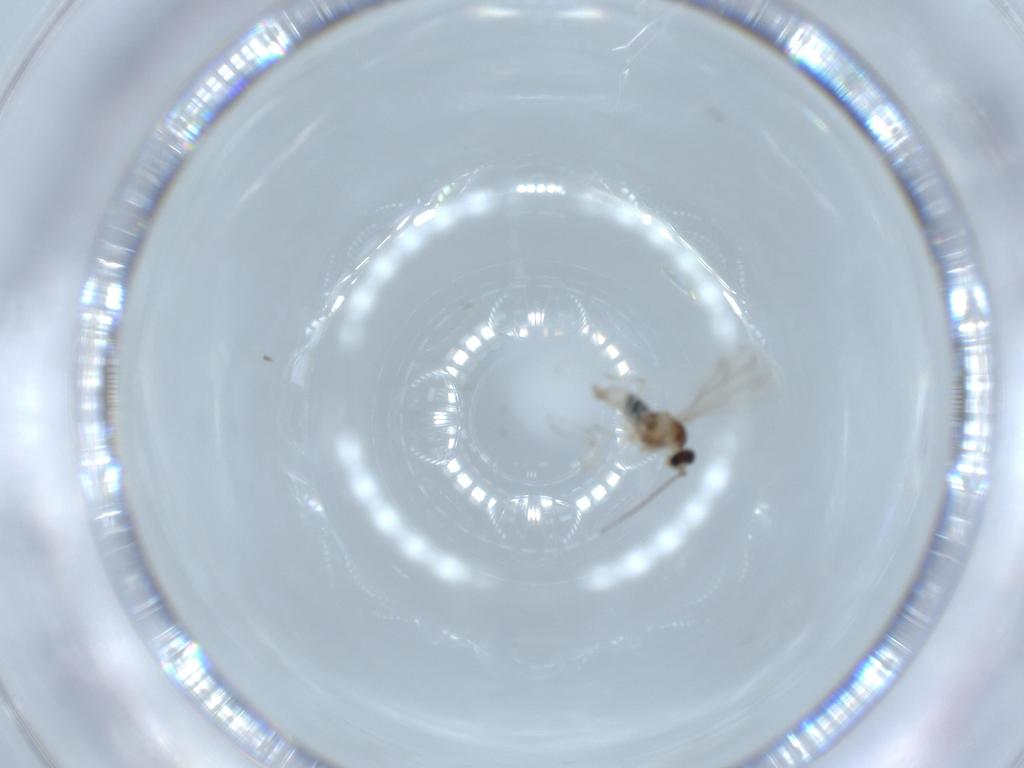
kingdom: Animalia
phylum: Arthropoda
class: Insecta
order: Diptera
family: Cecidomyiidae
